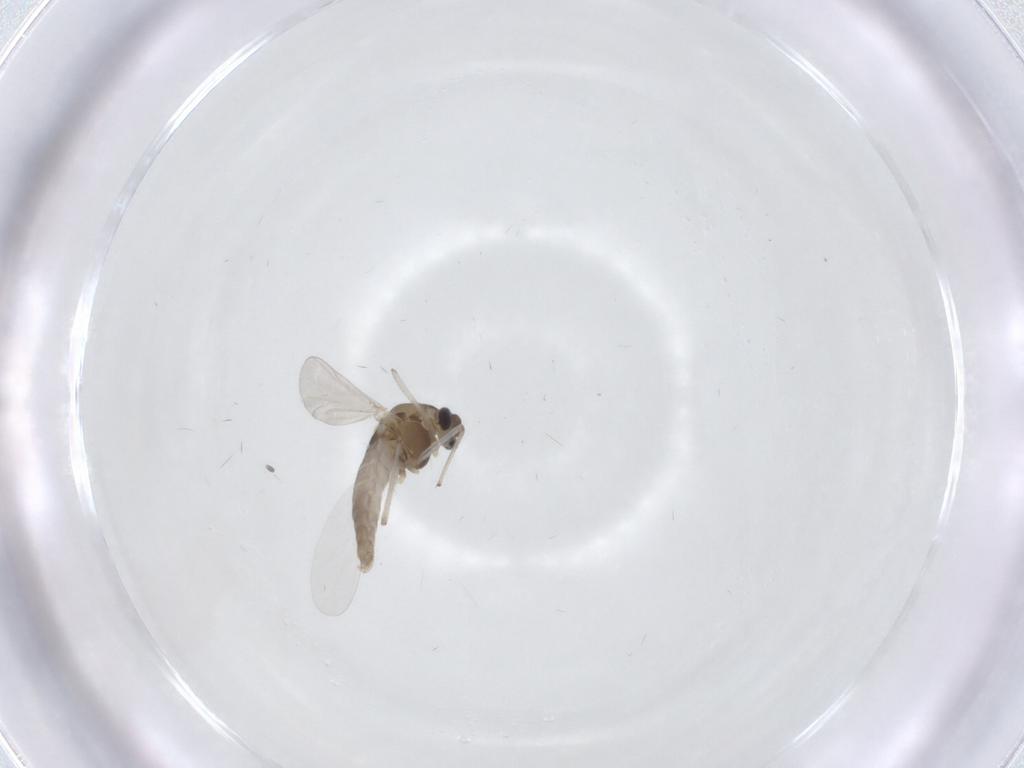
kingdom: Animalia
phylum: Arthropoda
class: Insecta
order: Diptera
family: Chironomidae
